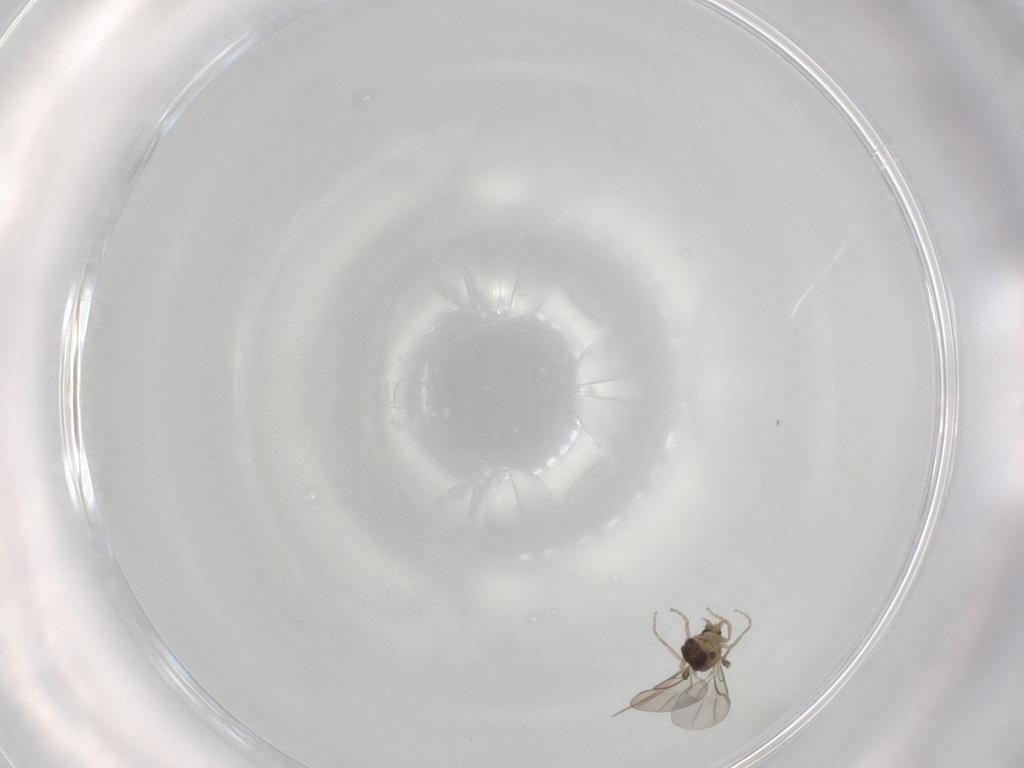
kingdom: Animalia
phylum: Arthropoda
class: Insecta
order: Diptera
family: Phoridae
